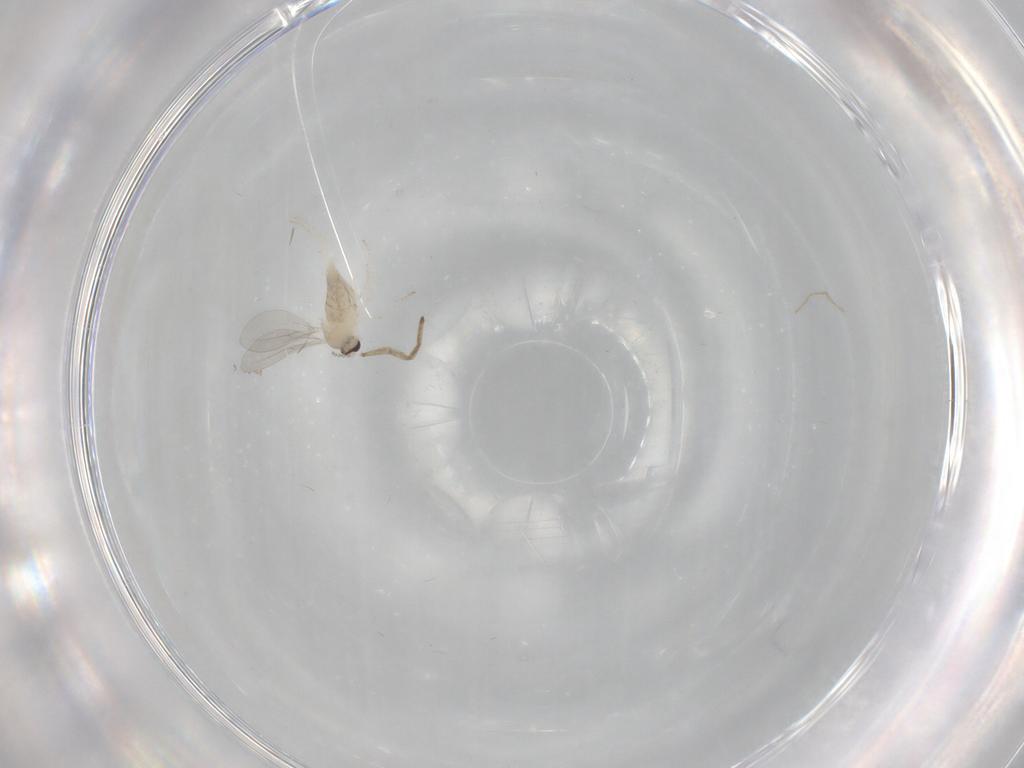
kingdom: Animalia
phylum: Arthropoda
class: Insecta
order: Diptera
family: Cecidomyiidae
